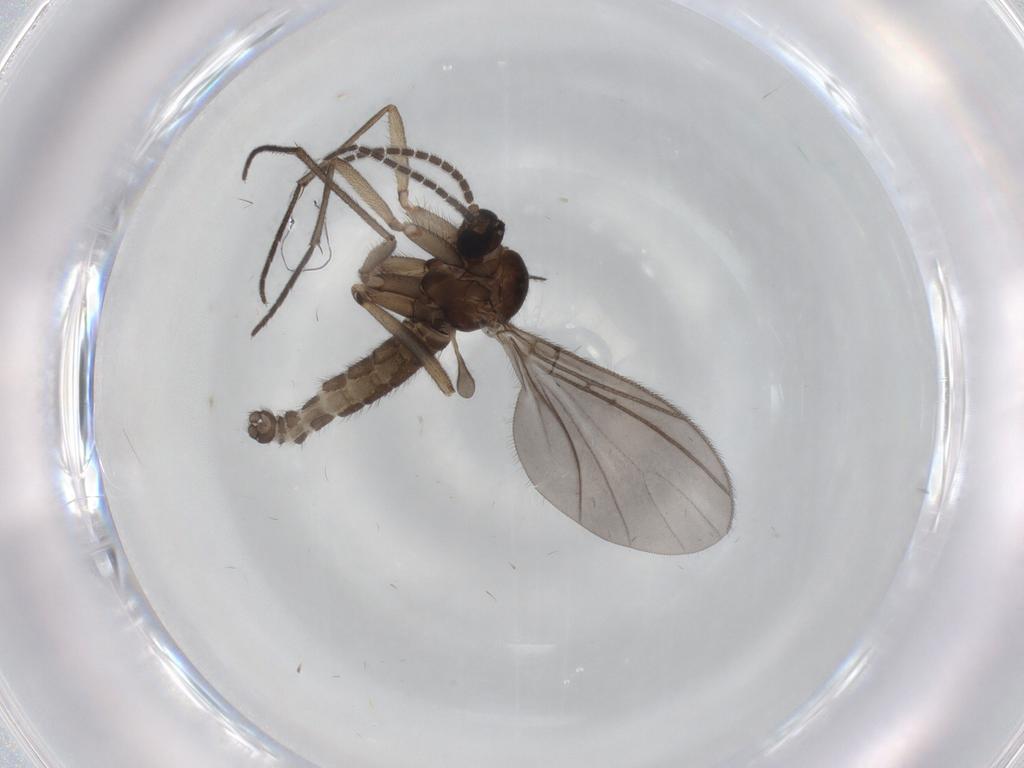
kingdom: Animalia
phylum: Arthropoda
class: Insecta
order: Diptera
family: Sciaridae
